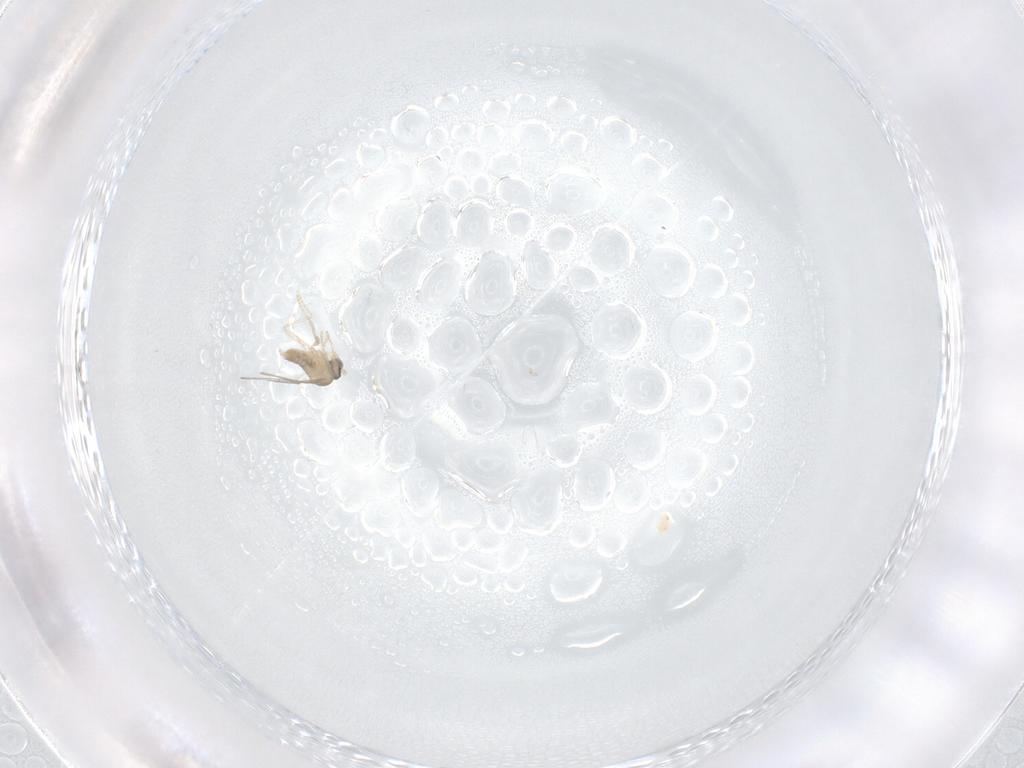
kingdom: Animalia
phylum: Arthropoda
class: Insecta
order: Diptera
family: Cecidomyiidae
